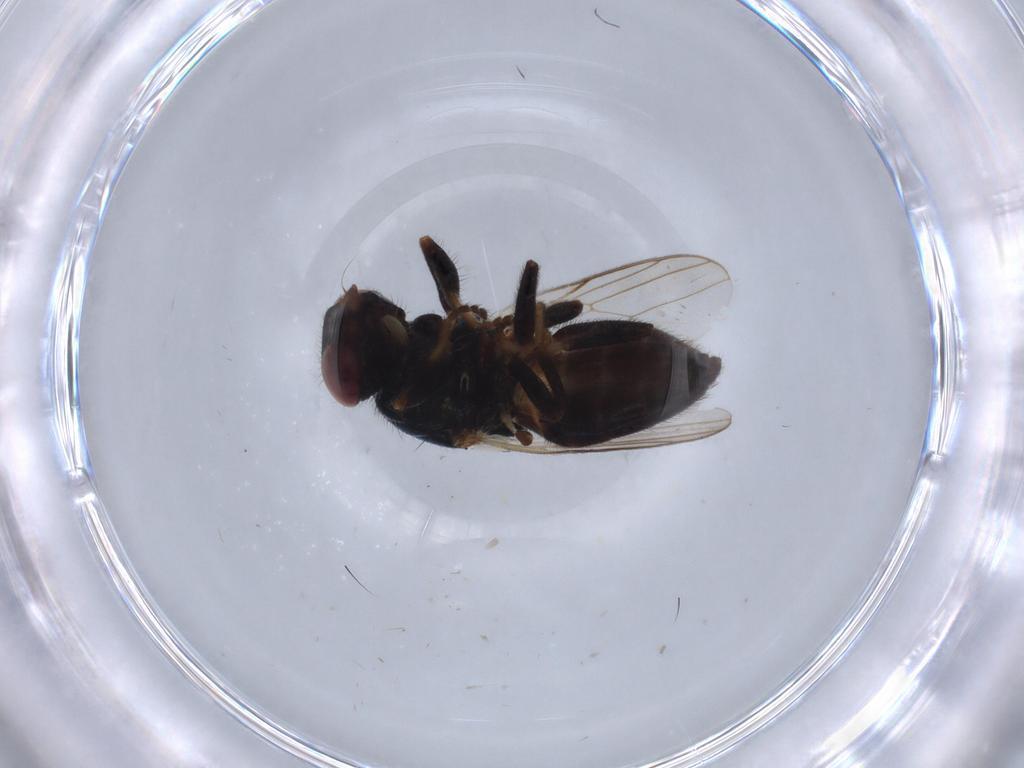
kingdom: Animalia
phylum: Arthropoda
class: Insecta
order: Diptera
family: Chloropidae
